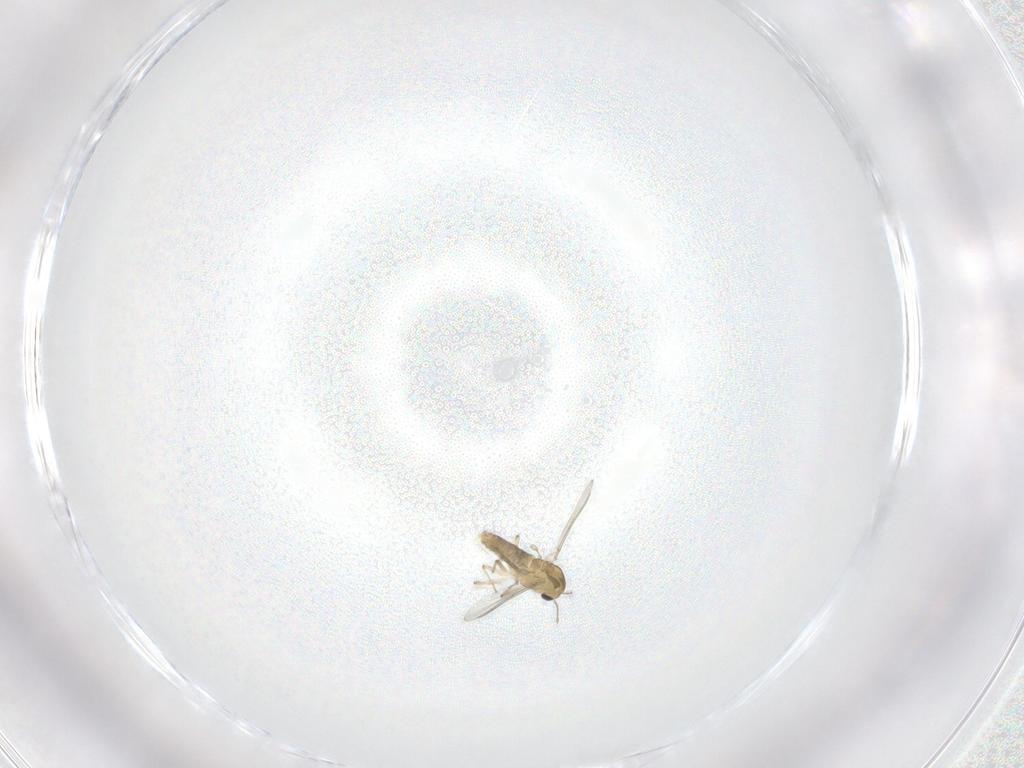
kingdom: Animalia
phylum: Arthropoda
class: Insecta
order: Diptera
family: Chironomidae
